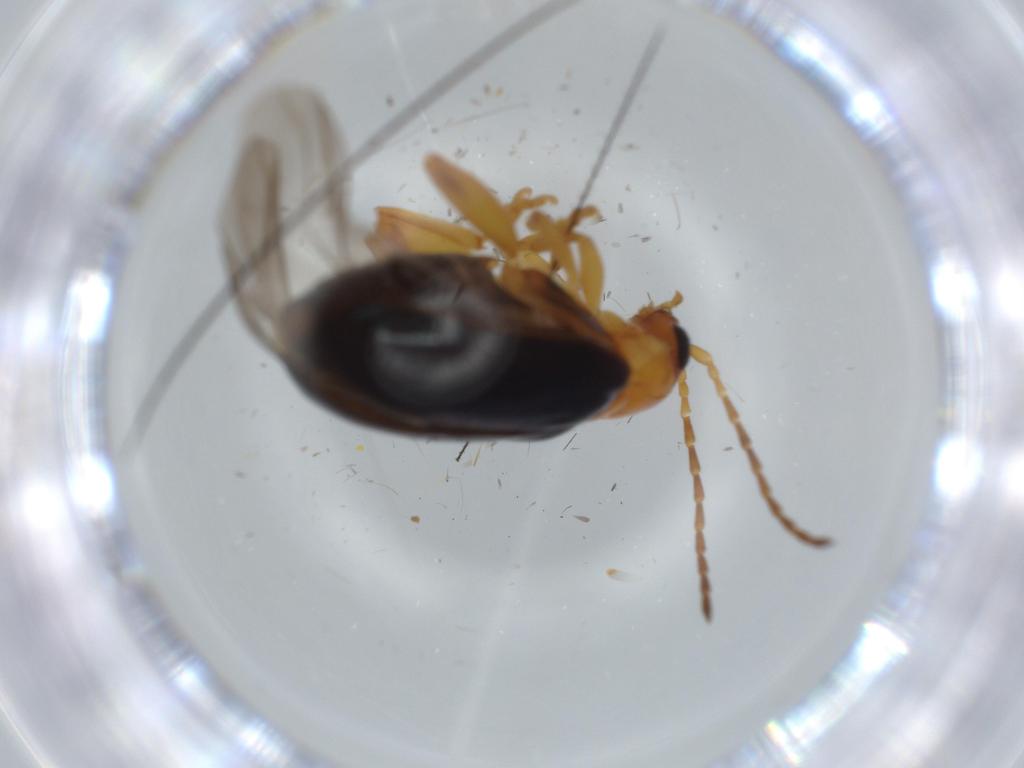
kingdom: Animalia
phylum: Arthropoda
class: Insecta
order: Coleoptera
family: Chrysomelidae
